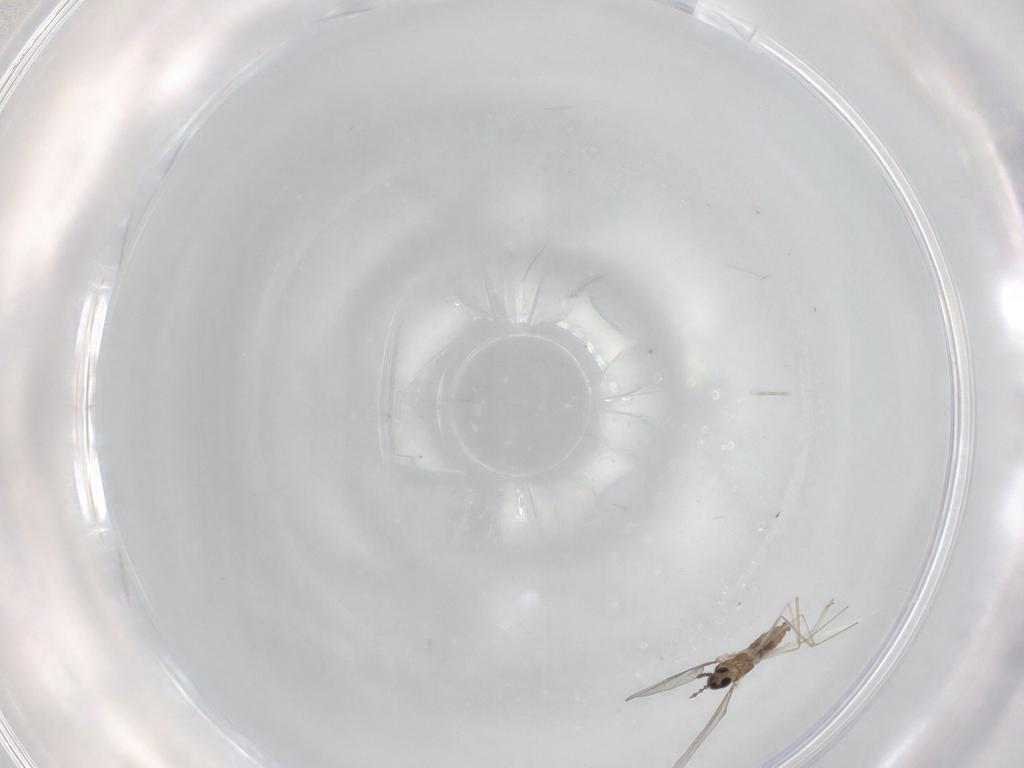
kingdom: Animalia
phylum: Arthropoda
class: Insecta
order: Diptera
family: Cecidomyiidae
